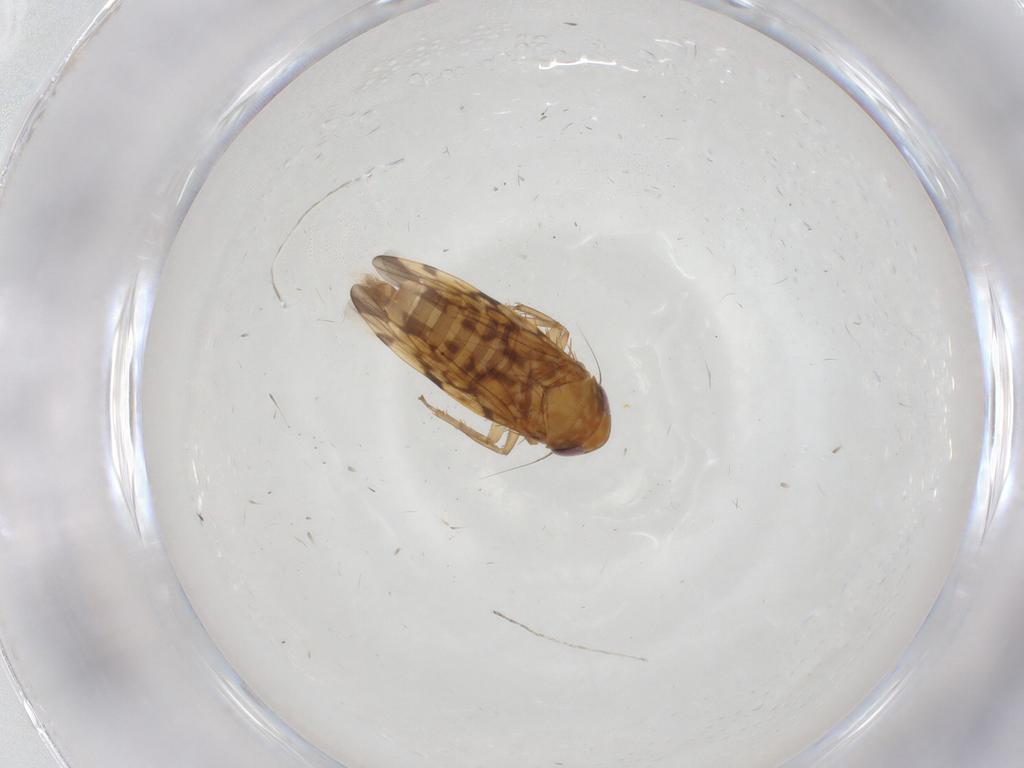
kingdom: Animalia
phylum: Arthropoda
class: Insecta
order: Hemiptera
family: Cicadellidae
